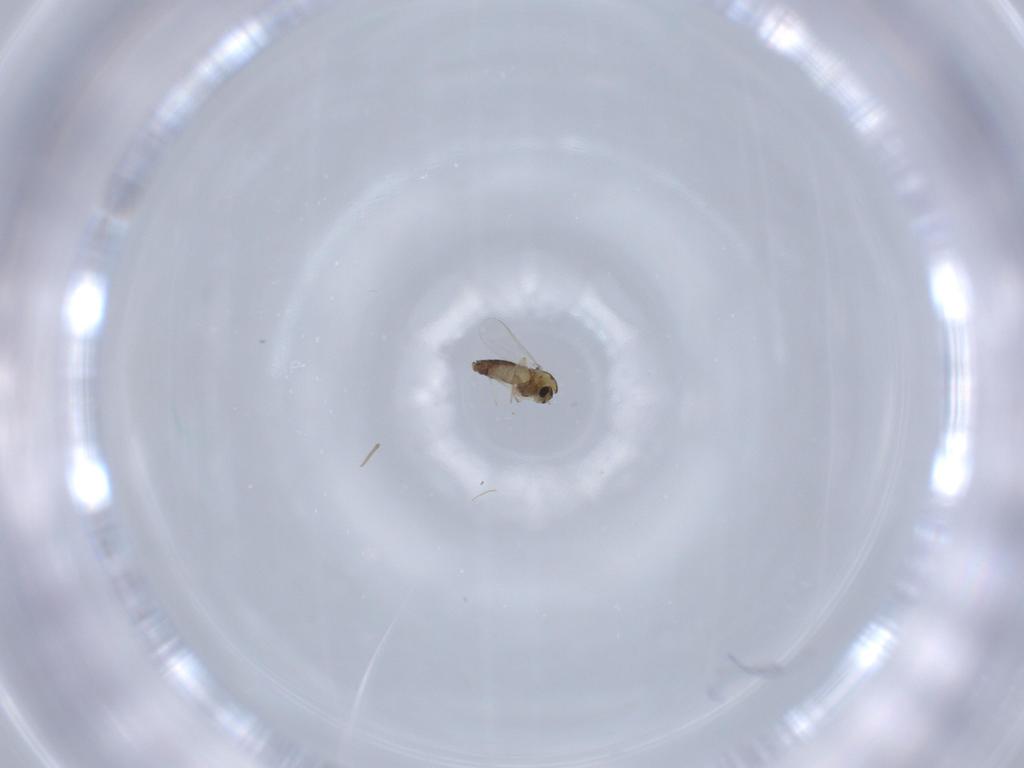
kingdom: Animalia
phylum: Arthropoda
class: Insecta
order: Diptera
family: Chironomidae
